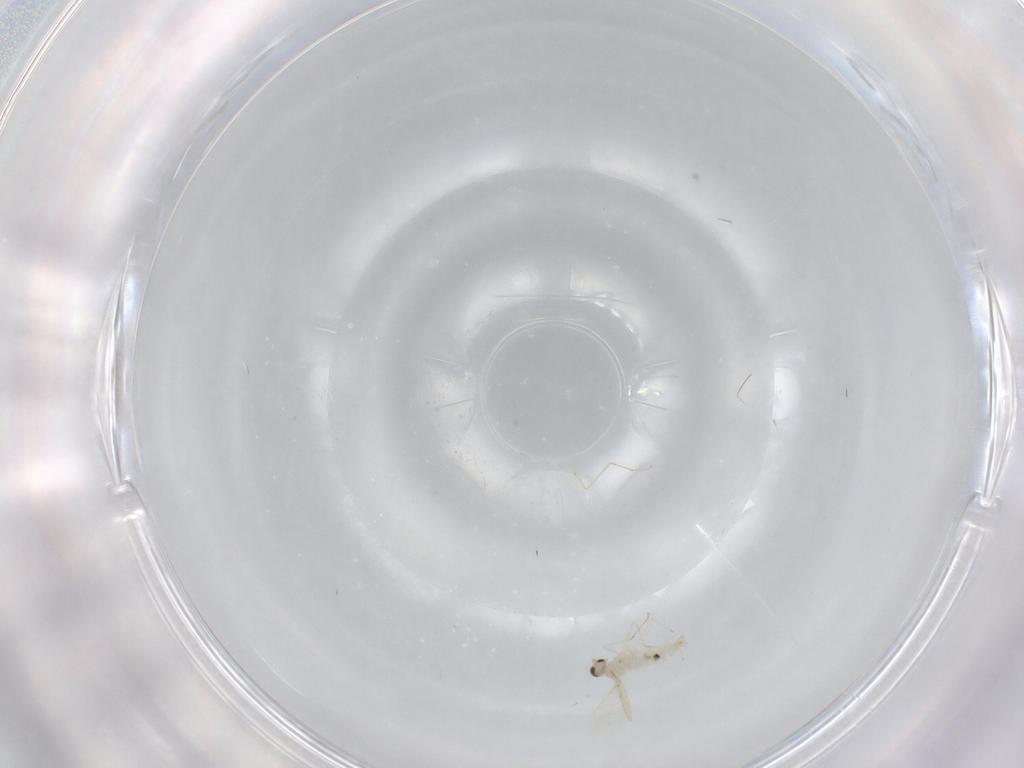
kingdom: Animalia
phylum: Arthropoda
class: Insecta
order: Diptera
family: Cecidomyiidae
